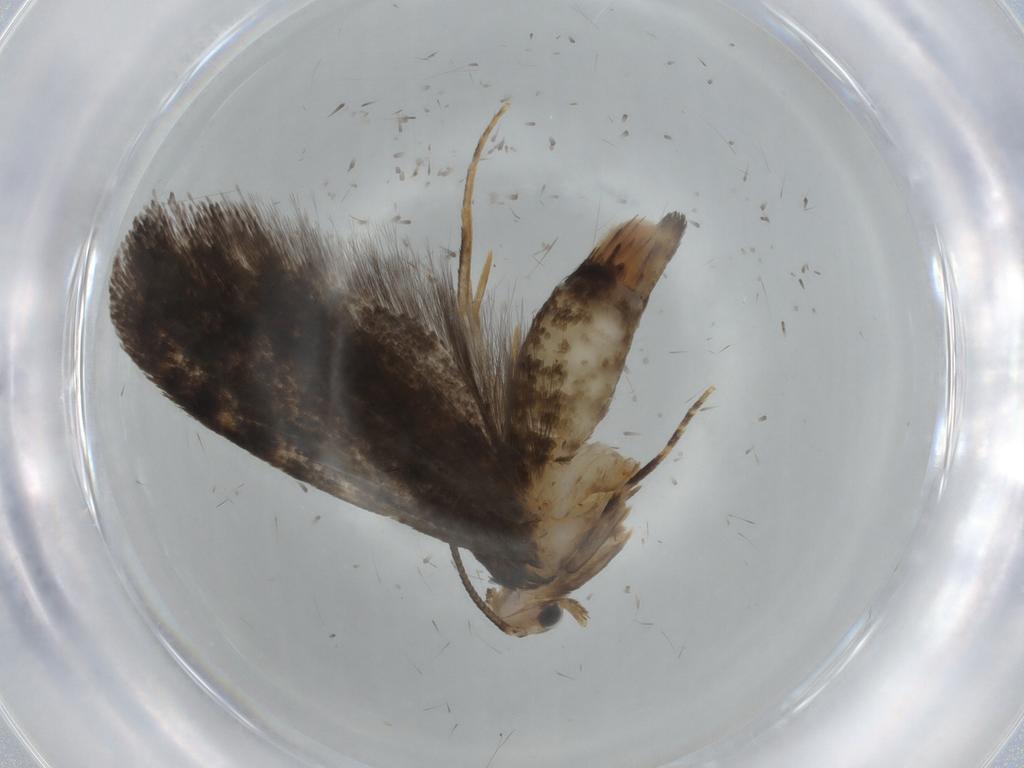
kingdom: Animalia
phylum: Arthropoda
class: Insecta
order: Lepidoptera
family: Tineidae
